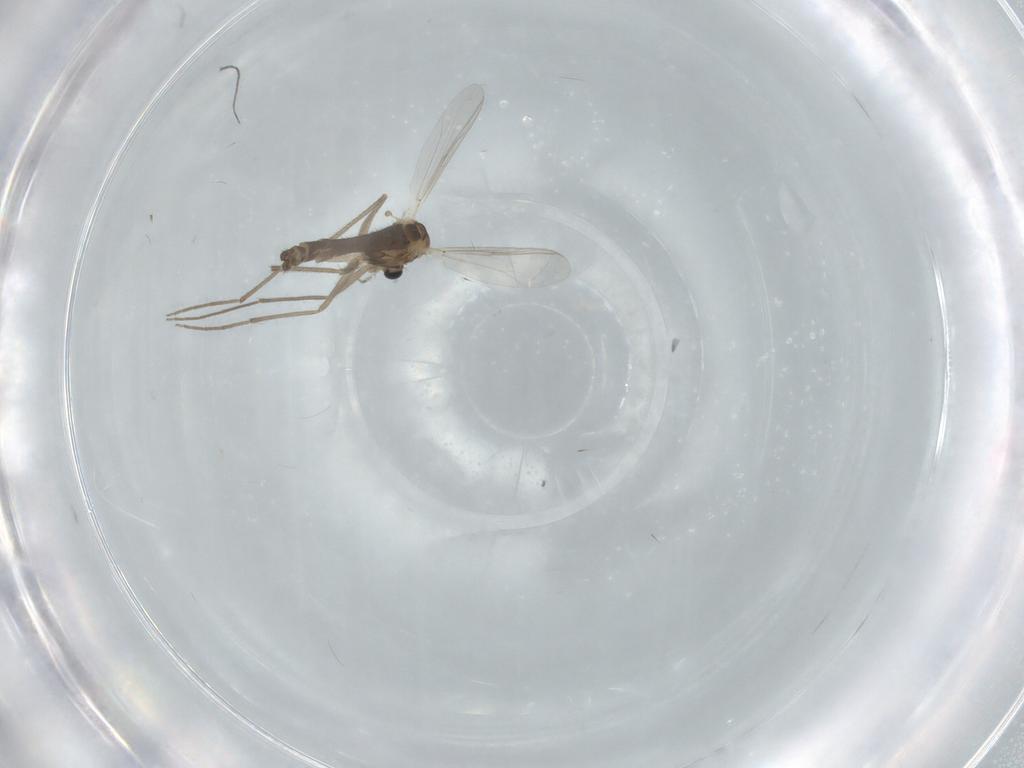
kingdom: Animalia
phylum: Arthropoda
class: Insecta
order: Diptera
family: Chironomidae
